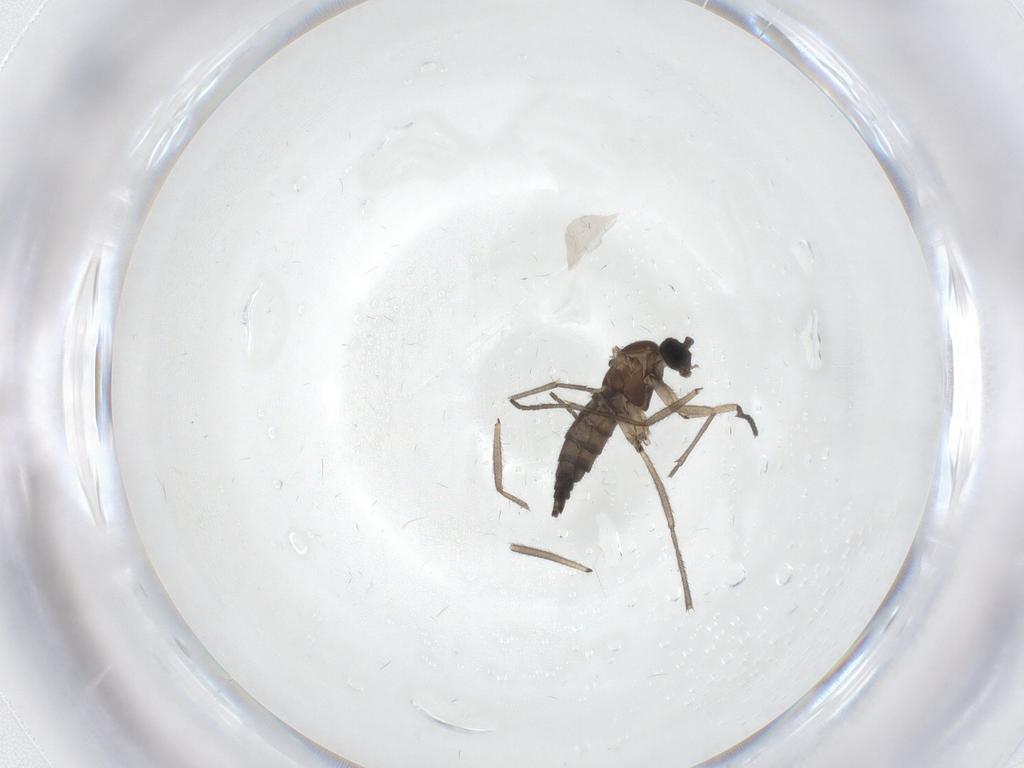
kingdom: Animalia
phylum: Arthropoda
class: Insecta
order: Diptera
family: Sciaridae
